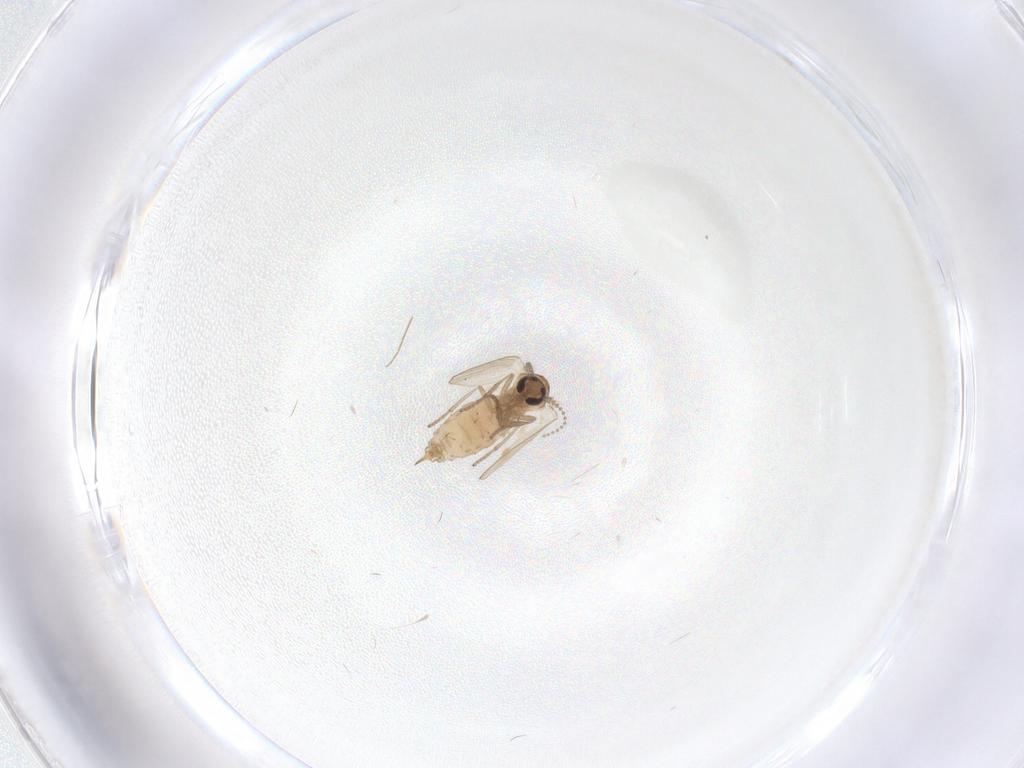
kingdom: Animalia
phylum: Arthropoda
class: Insecta
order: Diptera
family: Psychodidae
